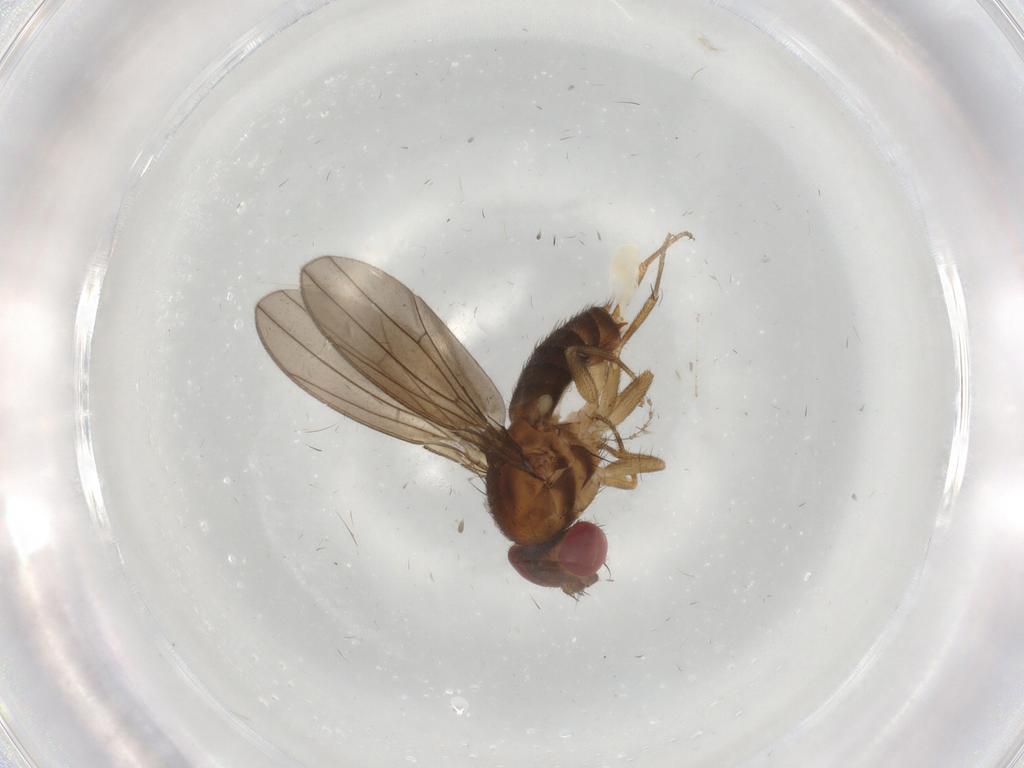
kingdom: Animalia
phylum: Arthropoda
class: Insecta
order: Diptera
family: Drosophilidae
